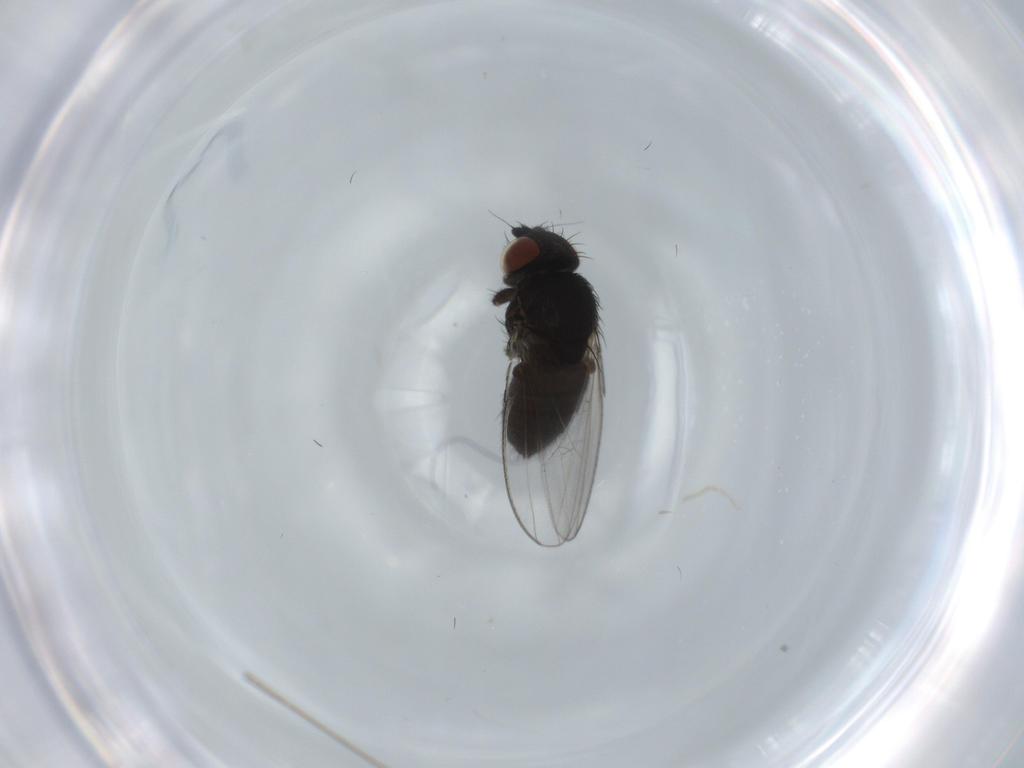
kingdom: Animalia
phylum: Arthropoda
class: Insecta
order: Diptera
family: Milichiidae
